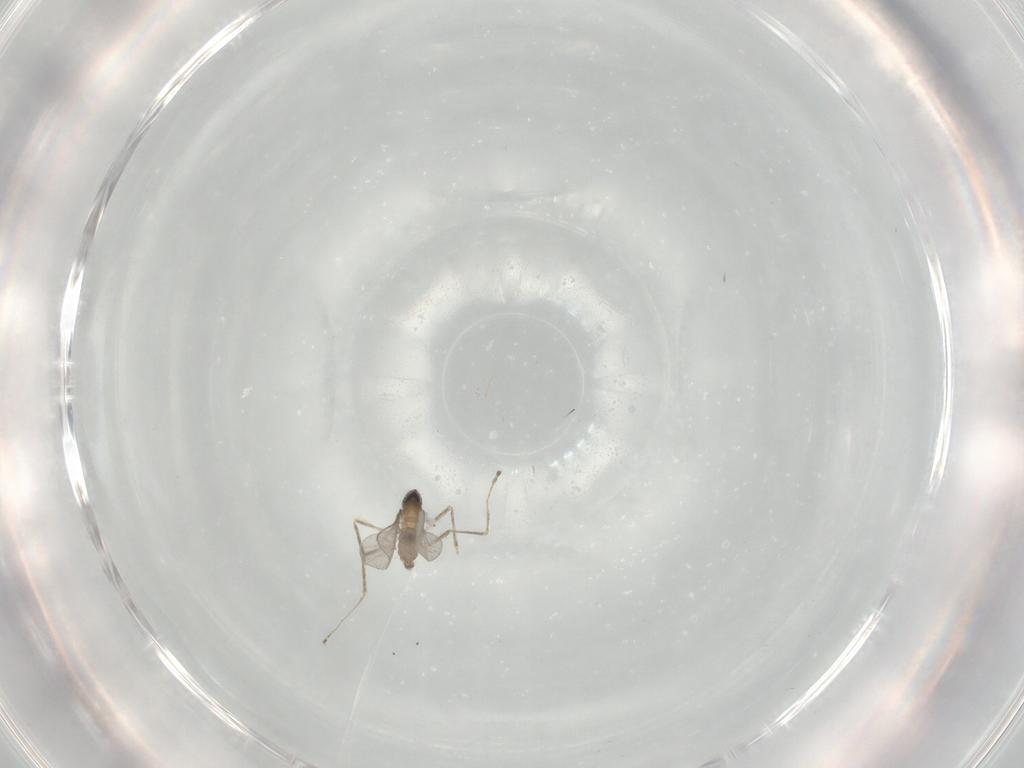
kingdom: Animalia
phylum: Arthropoda
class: Insecta
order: Diptera
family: Cecidomyiidae
